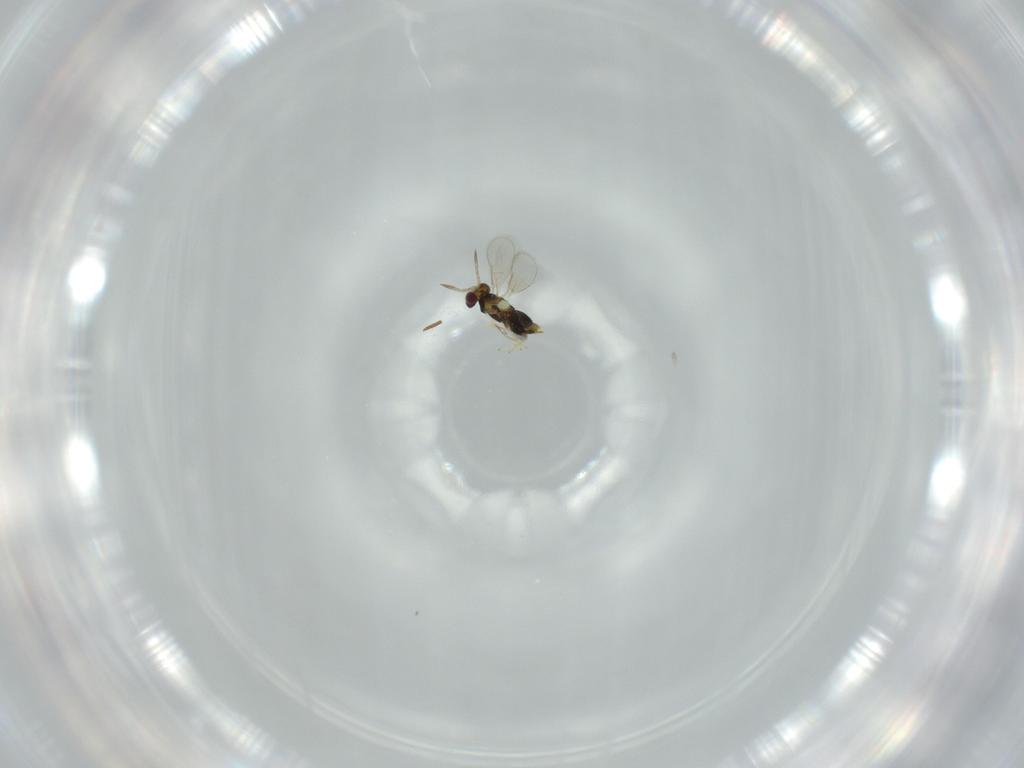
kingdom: Animalia
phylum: Arthropoda
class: Insecta
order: Hymenoptera
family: Aphelinidae
